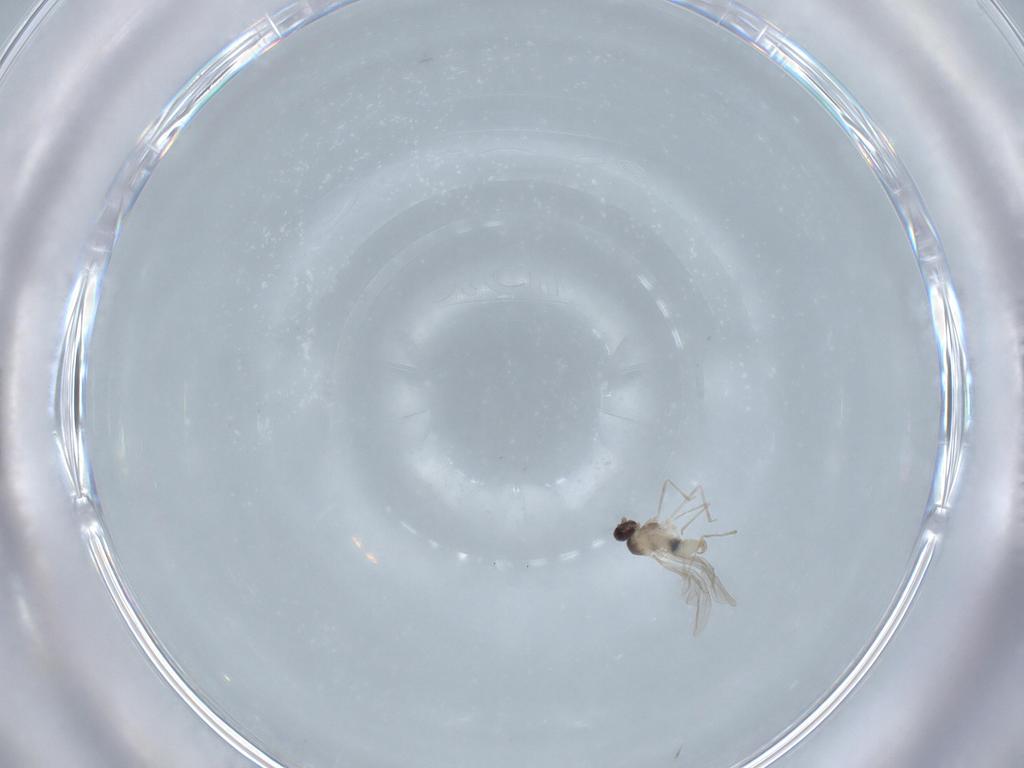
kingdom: Animalia
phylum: Arthropoda
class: Insecta
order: Diptera
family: Cecidomyiidae
